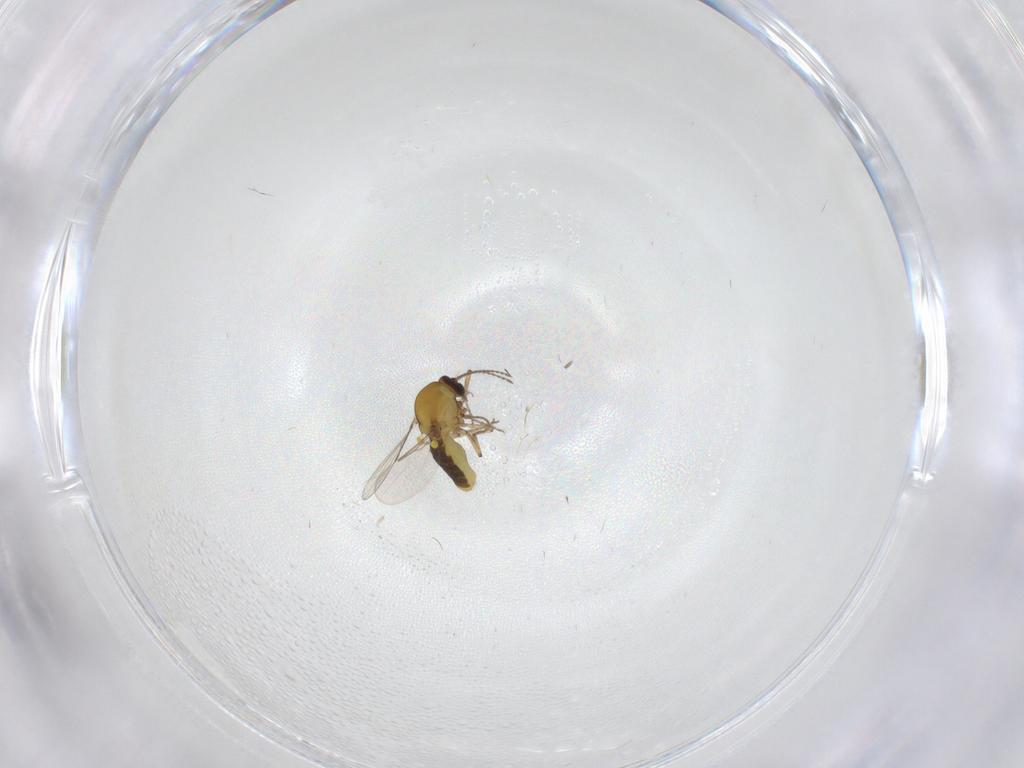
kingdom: Animalia
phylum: Arthropoda
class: Insecta
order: Diptera
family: Ceratopogonidae
